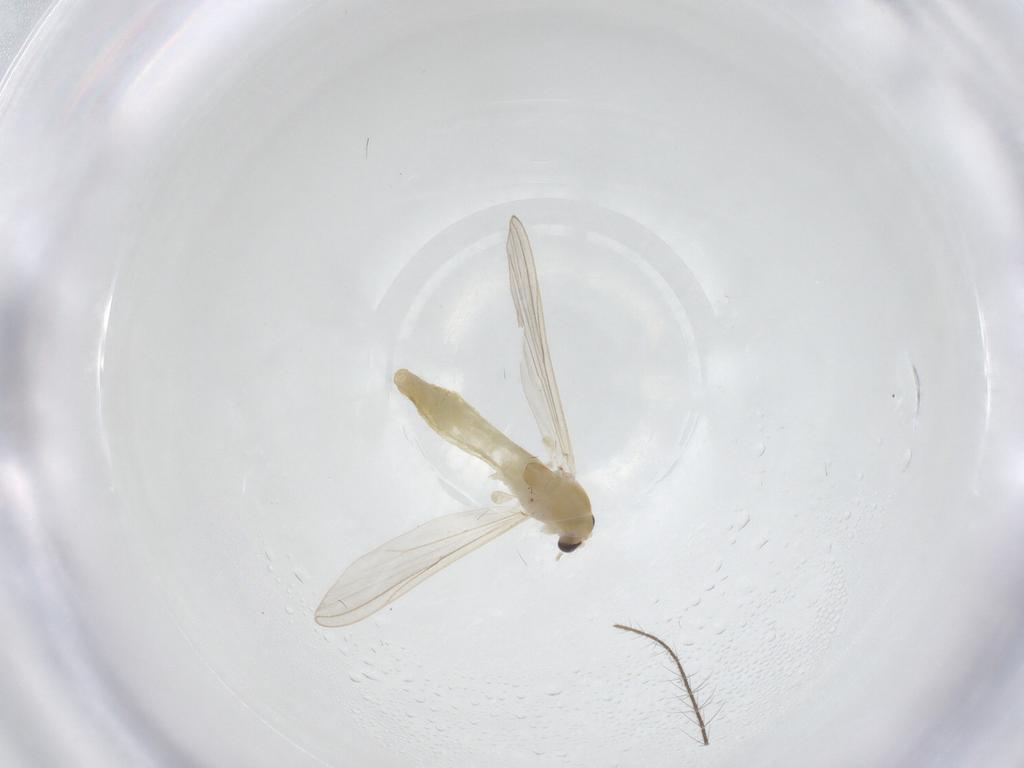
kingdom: Animalia
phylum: Arthropoda
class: Insecta
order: Diptera
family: Chironomidae
